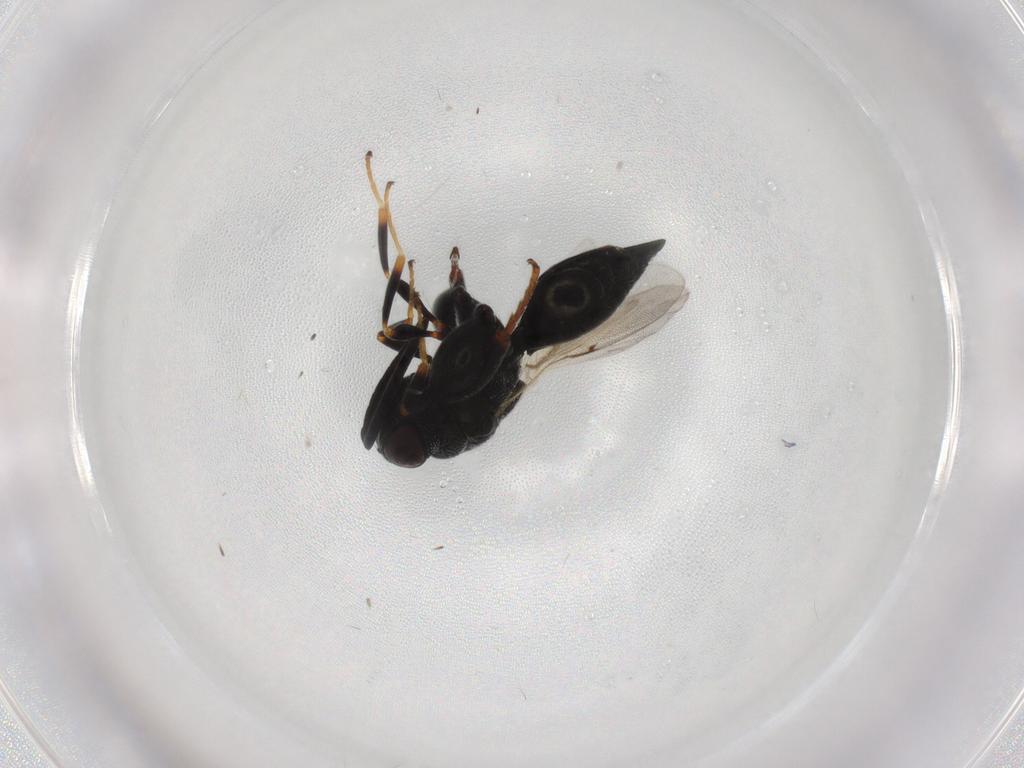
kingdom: Animalia
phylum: Arthropoda
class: Insecta
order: Hymenoptera
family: Chalcididae
